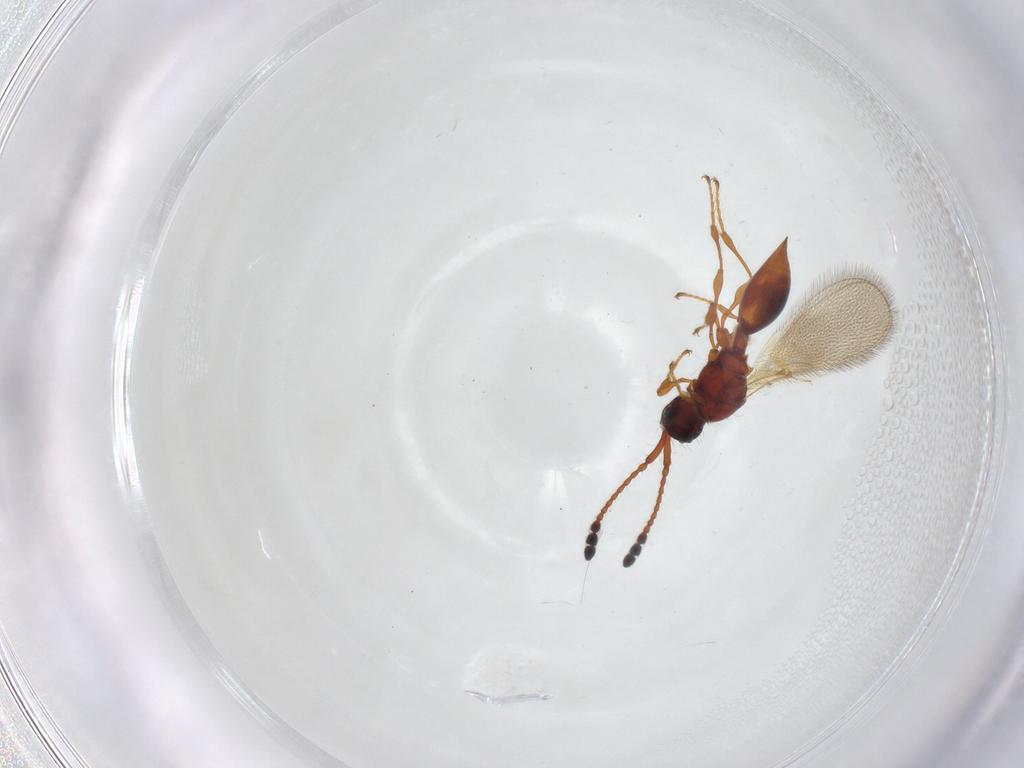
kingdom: Animalia
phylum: Arthropoda
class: Insecta
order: Hymenoptera
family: Diapriidae
